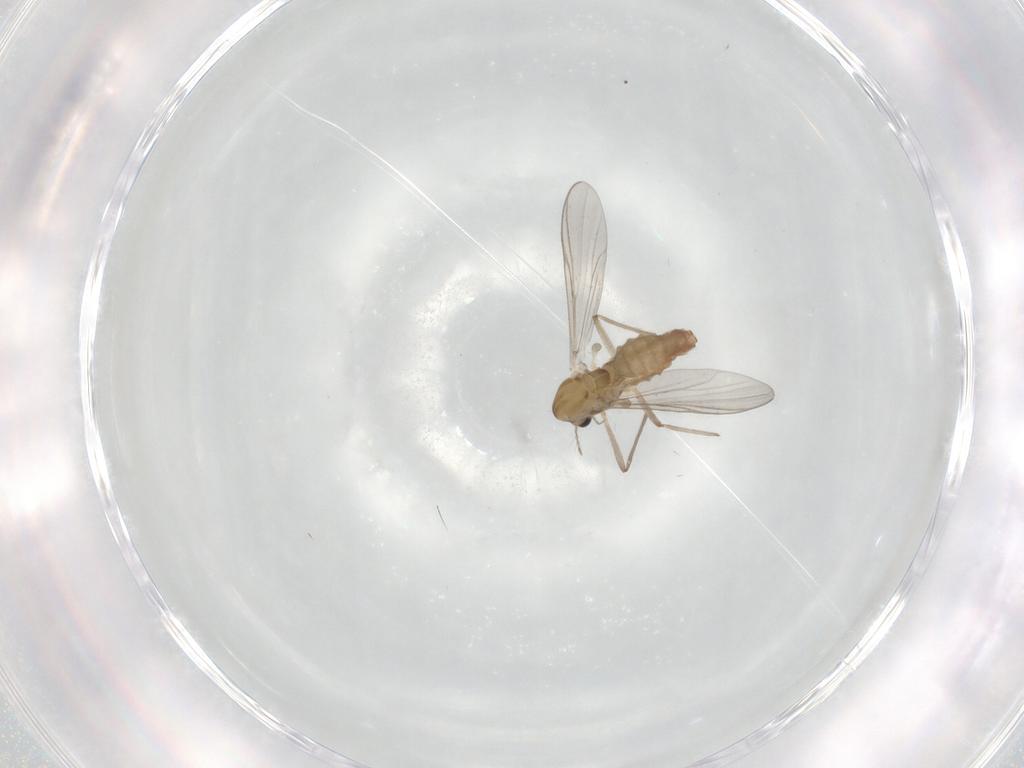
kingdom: Animalia
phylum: Arthropoda
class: Insecta
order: Diptera
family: Chironomidae
